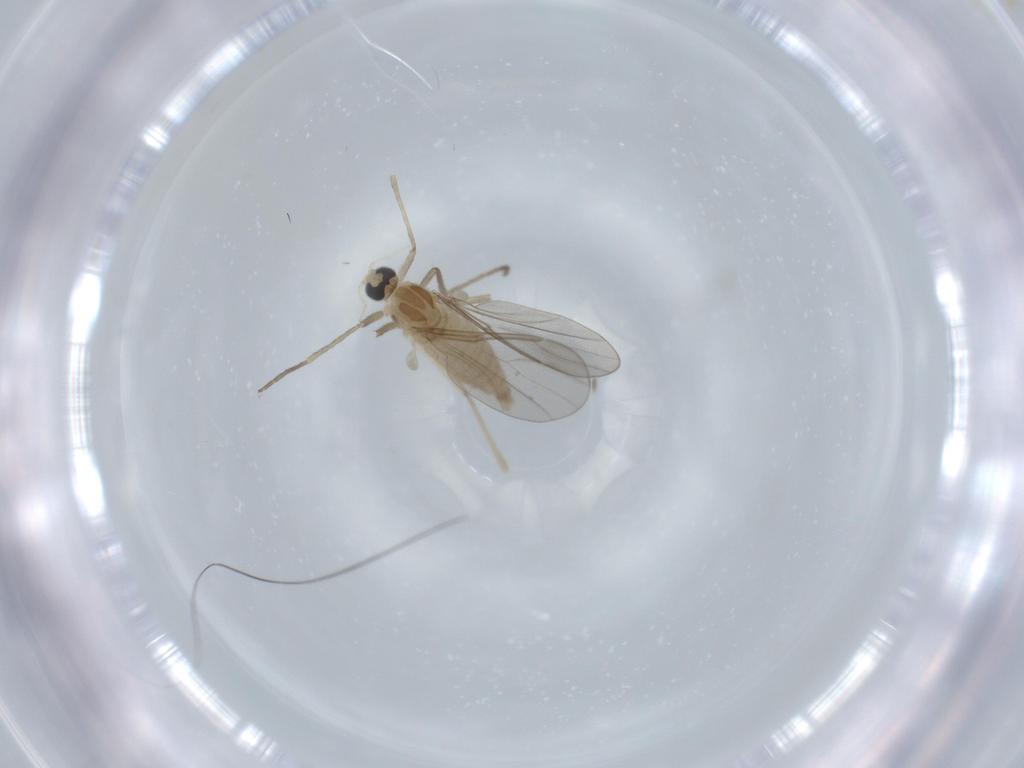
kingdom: Animalia
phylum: Arthropoda
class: Insecta
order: Diptera
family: Cecidomyiidae
